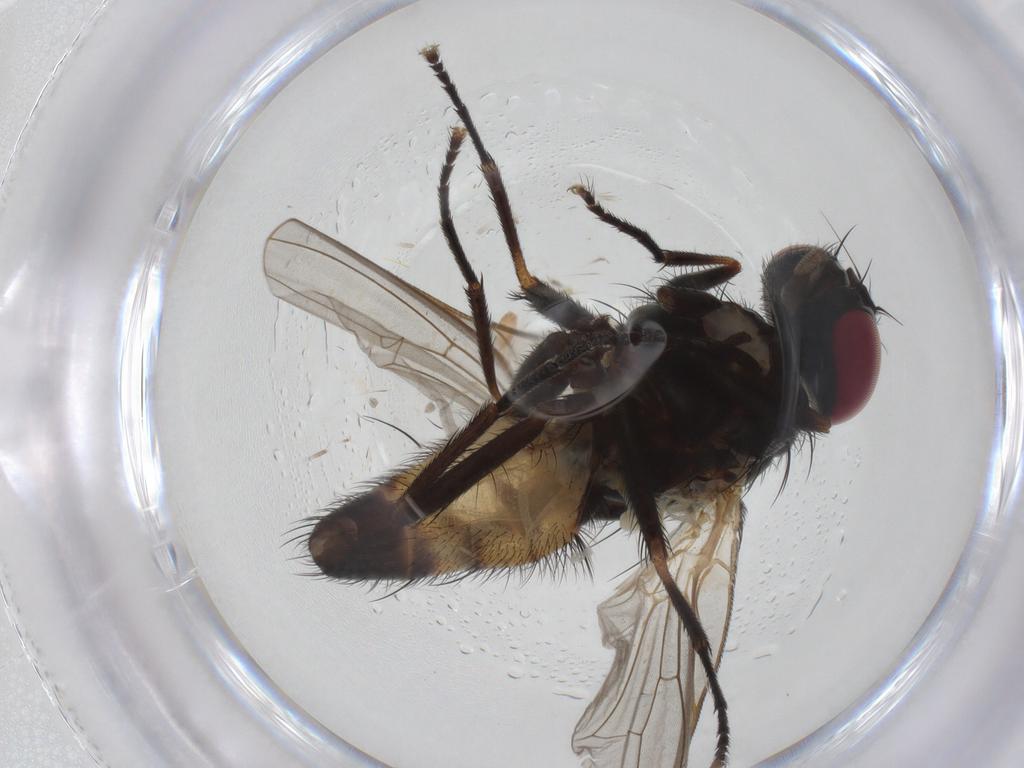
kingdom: Animalia
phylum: Arthropoda
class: Insecta
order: Diptera
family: Fannia
